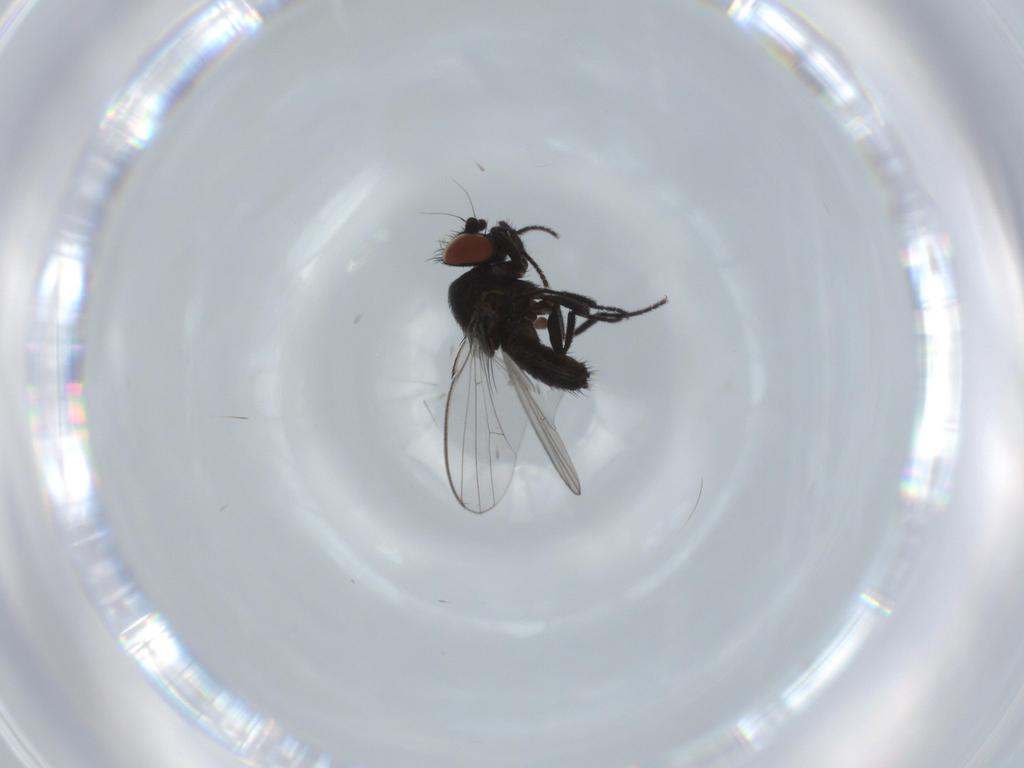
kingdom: Animalia
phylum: Arthropoda
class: Insecta
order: Diptera
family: Milichiidae
